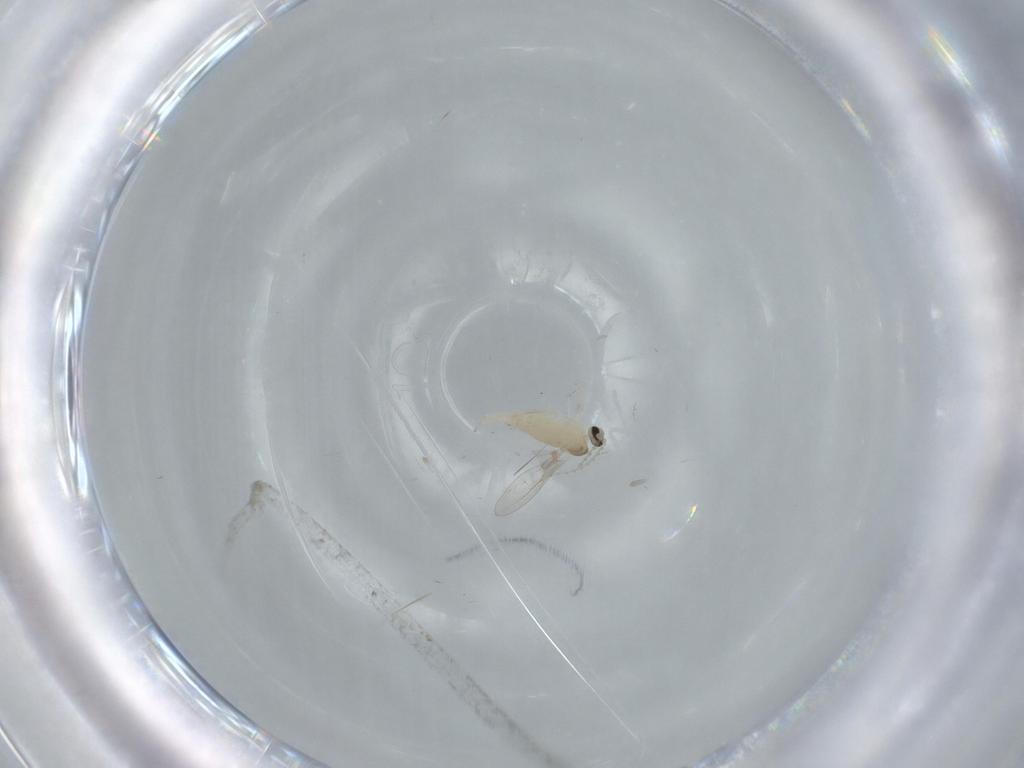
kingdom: Animalia
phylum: Arthropoda
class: Insecta
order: Diptera
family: Cecidomyiidae
